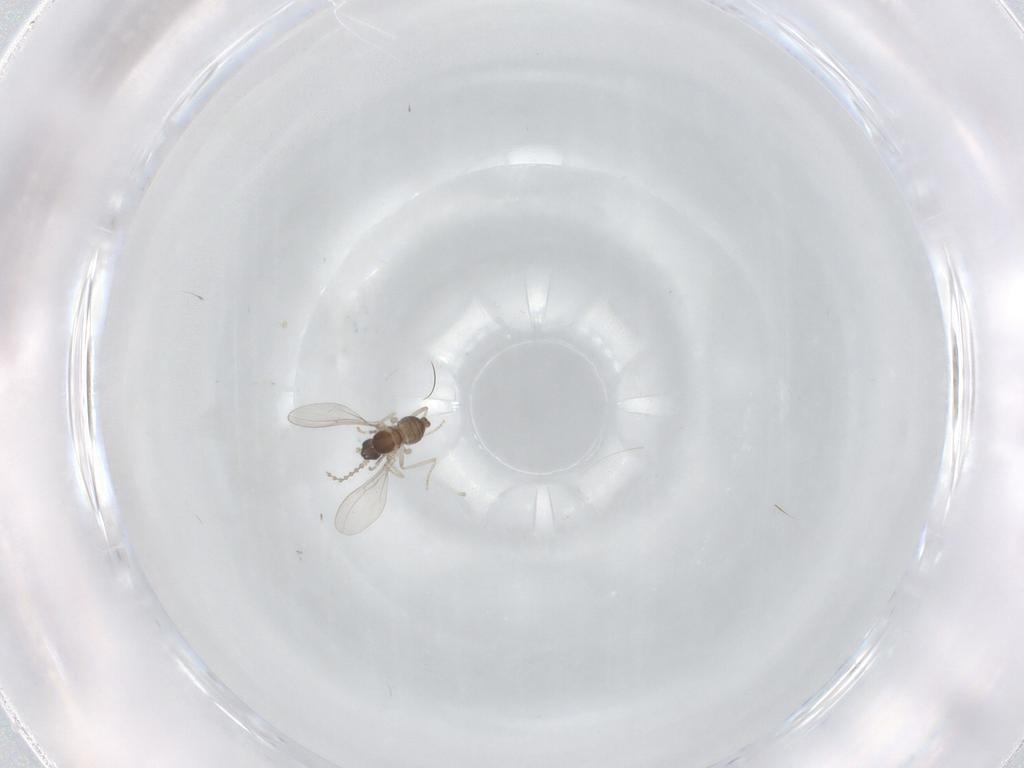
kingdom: Animalia
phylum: Arthropoda
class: Insecta
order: Diptera
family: Cecidomyiidae
